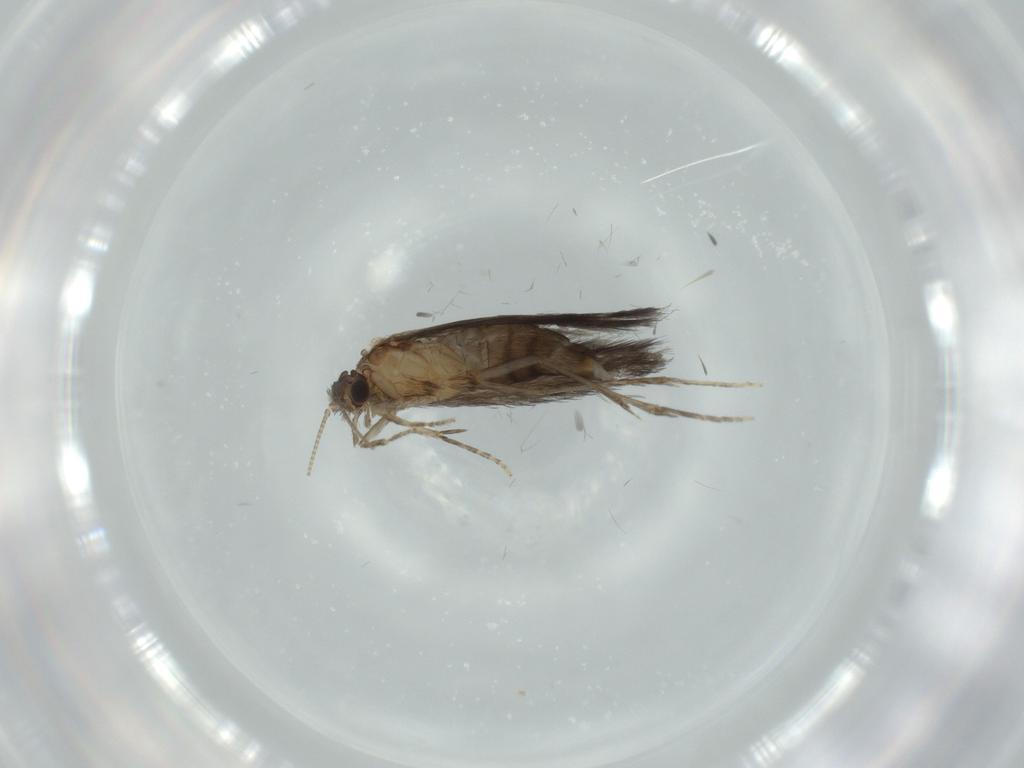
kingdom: Animalia
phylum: Arthropoda
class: Insecta
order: Trichoptera
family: Hydroptilidae
